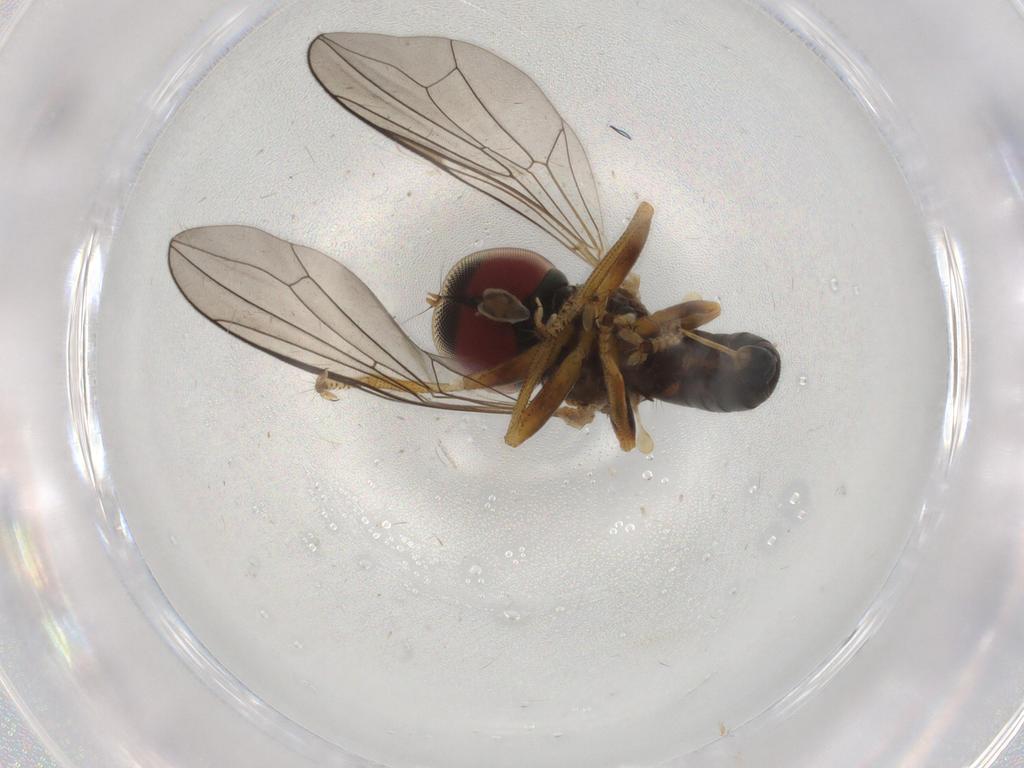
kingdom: Animalia
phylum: Arthropoda
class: Insecta
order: Diptera
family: Pipunculidae
